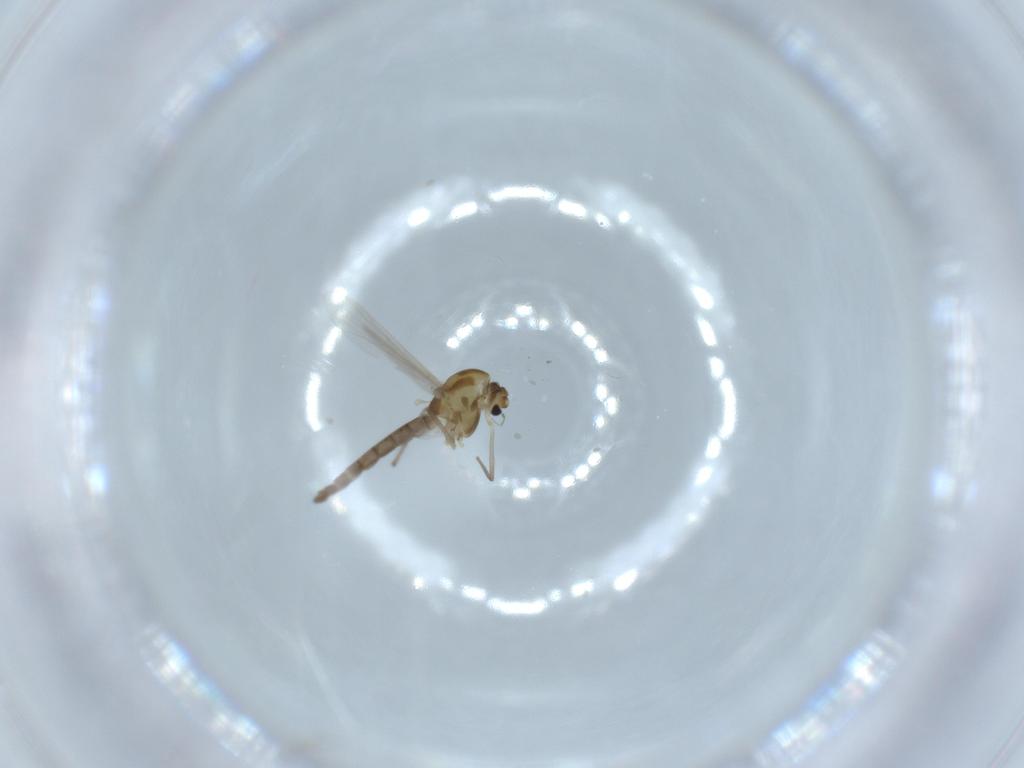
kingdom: Animalia
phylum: Arthropoda
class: Insecta
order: Diptera
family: Chironomidae
